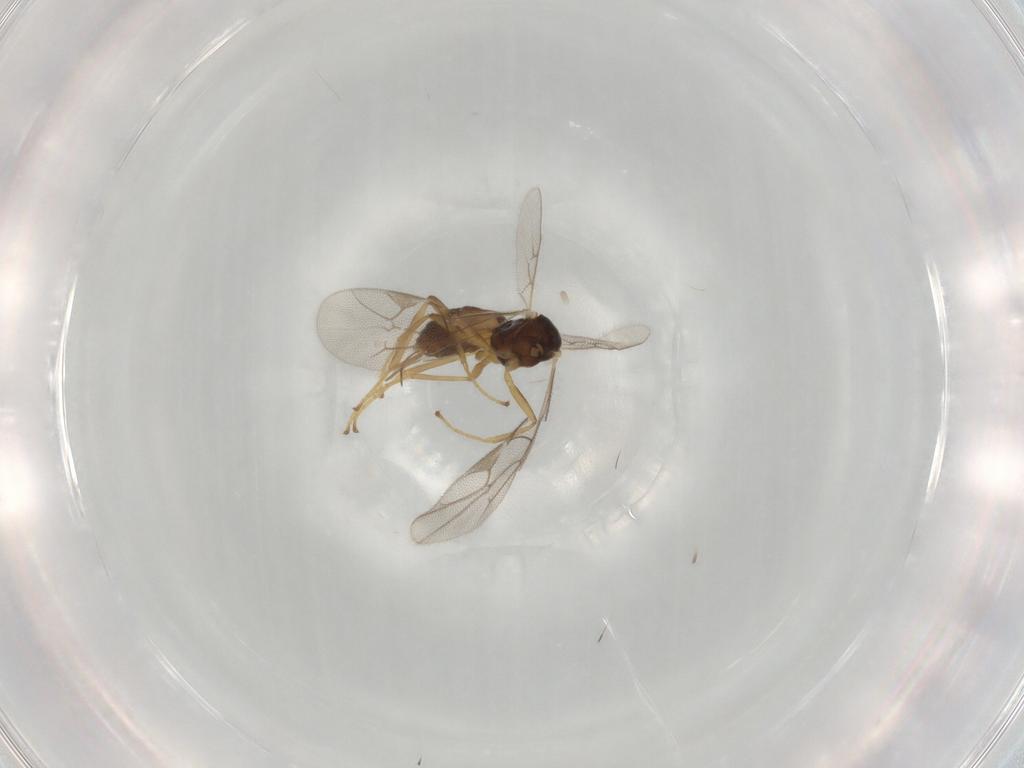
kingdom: Animalia
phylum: Arthropoda
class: Insecta
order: Hymenoptera
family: Ichneumonidae
